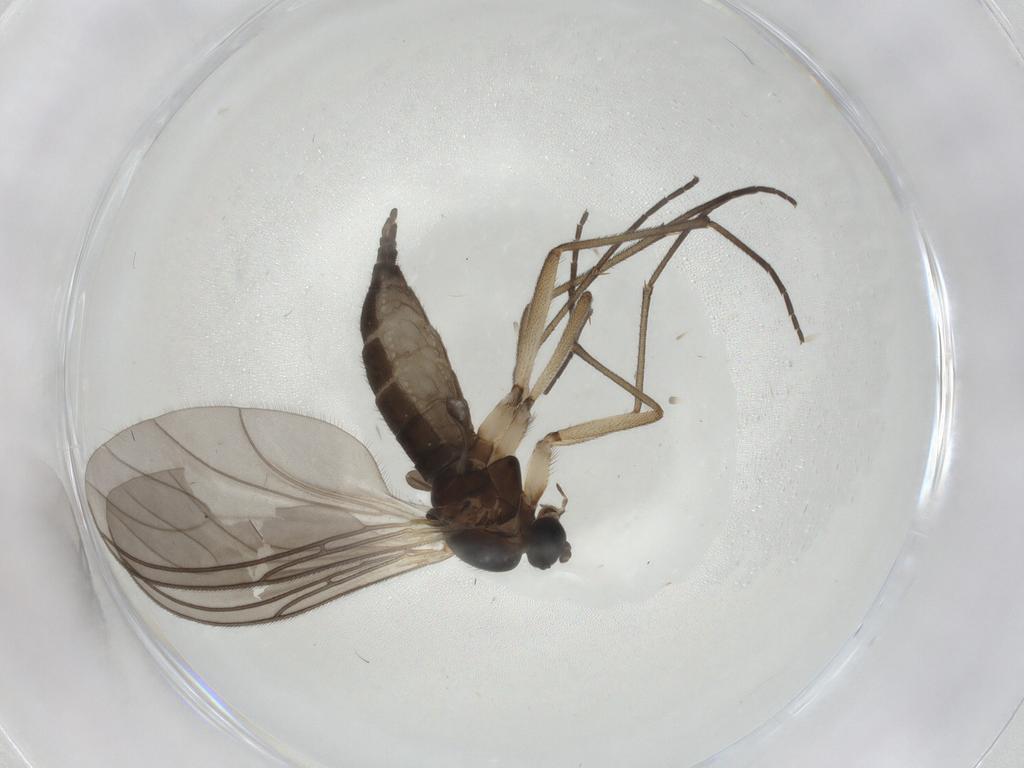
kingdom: Animalia
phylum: Arthropoda
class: Insecta
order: Diptera
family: Sciaridae
